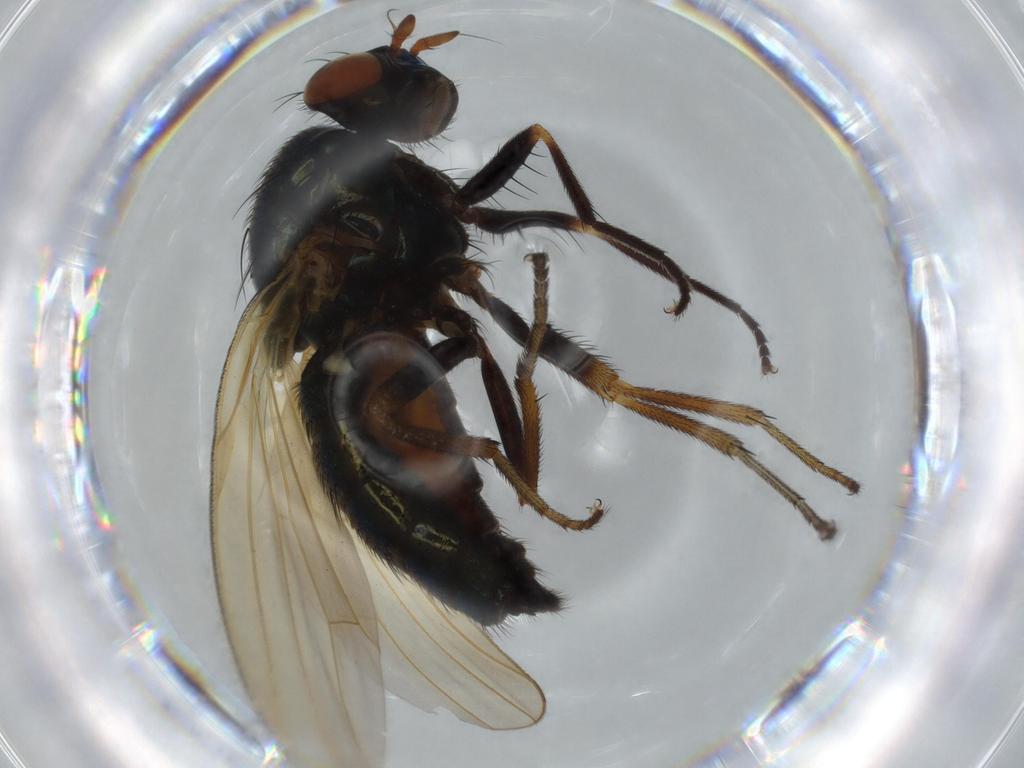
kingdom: Animalia
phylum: Arthropoda
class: Insecta
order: Diptera
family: Lauxaniidae
